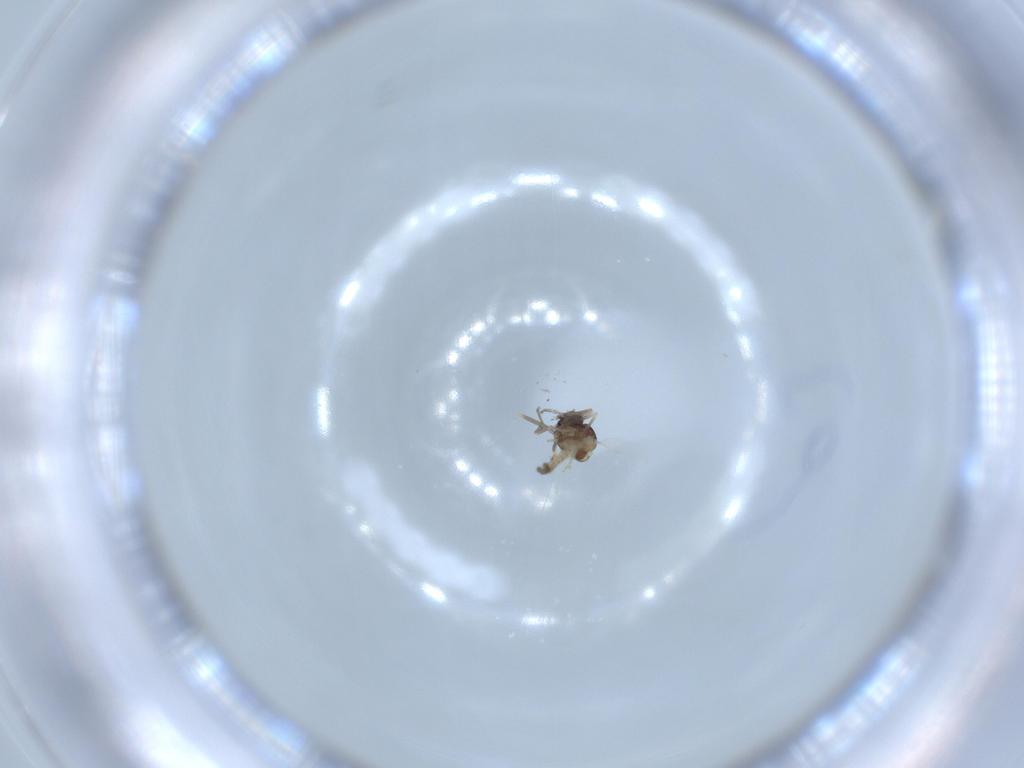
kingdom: Animalia
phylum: Arthropoda
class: Insecta
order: Diptera
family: Ceratopogonidae
